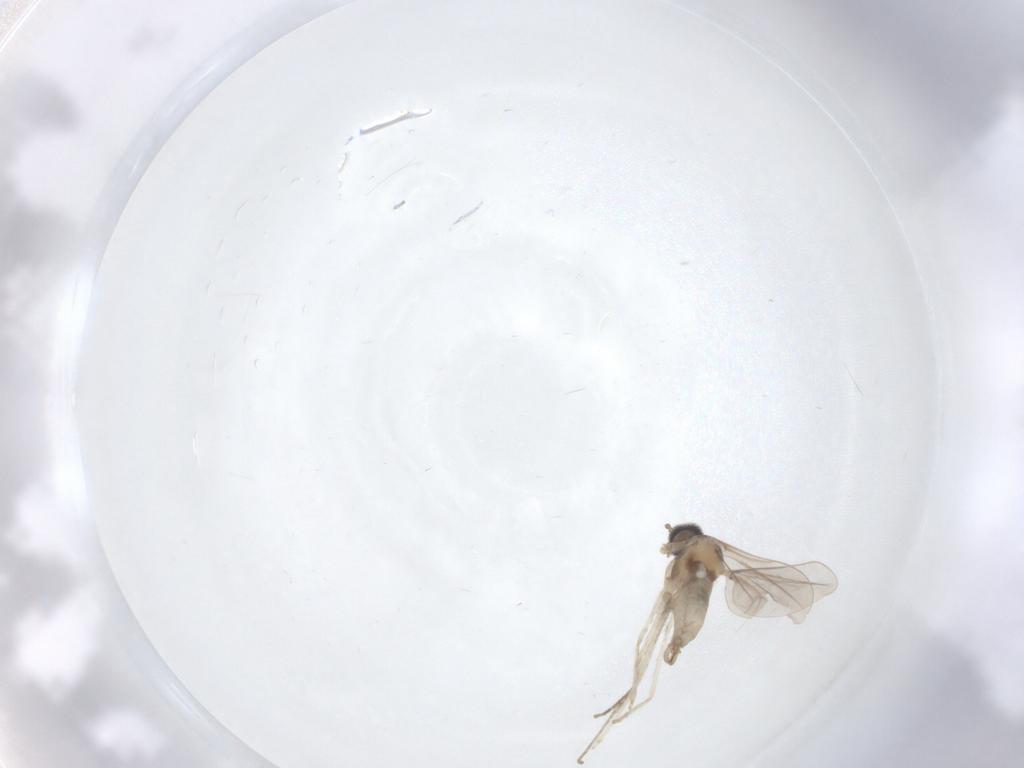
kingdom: Animalia
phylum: Arthropoda
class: Insecta
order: Diptera
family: Cecidomyiidae
